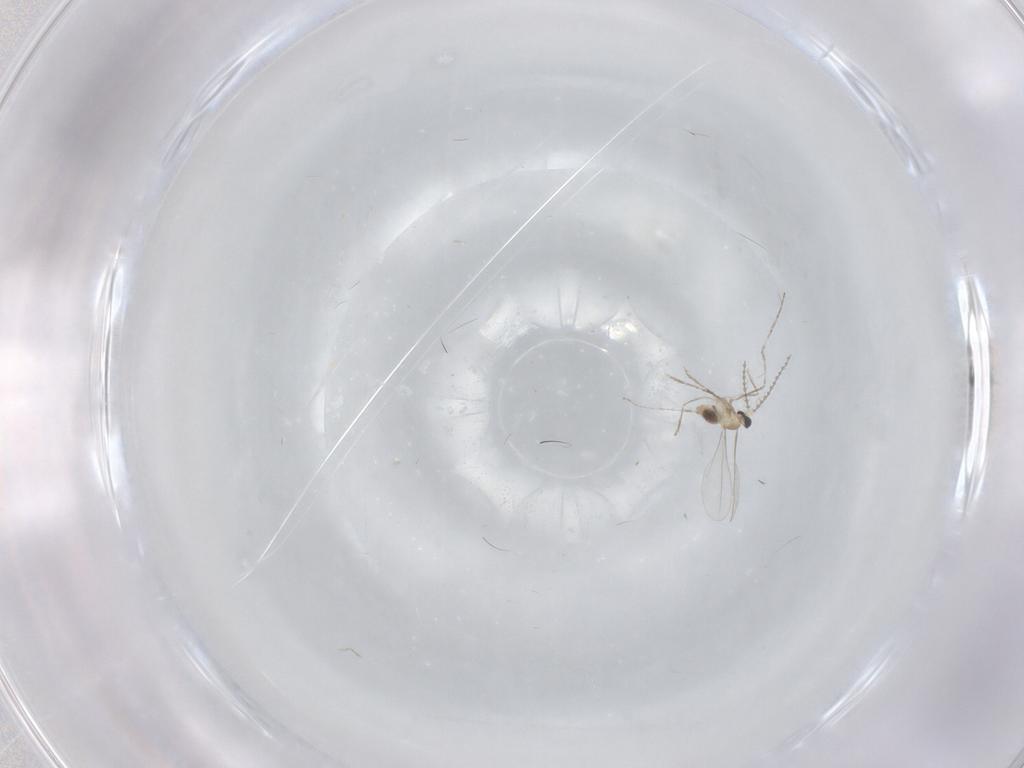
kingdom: Animalia
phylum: Arthropoda
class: Insecta
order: Diptera
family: Cecidomyiidae
